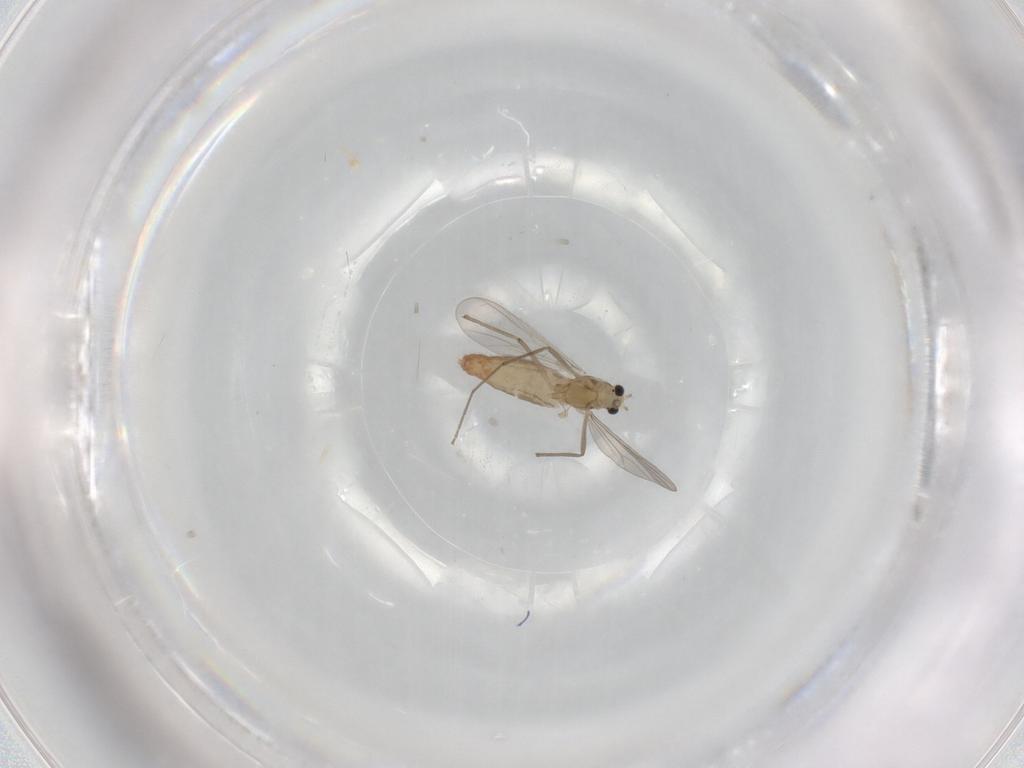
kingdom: Animalia
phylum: Arthropoda
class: Insecta
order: Diptera
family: Chironomidae
